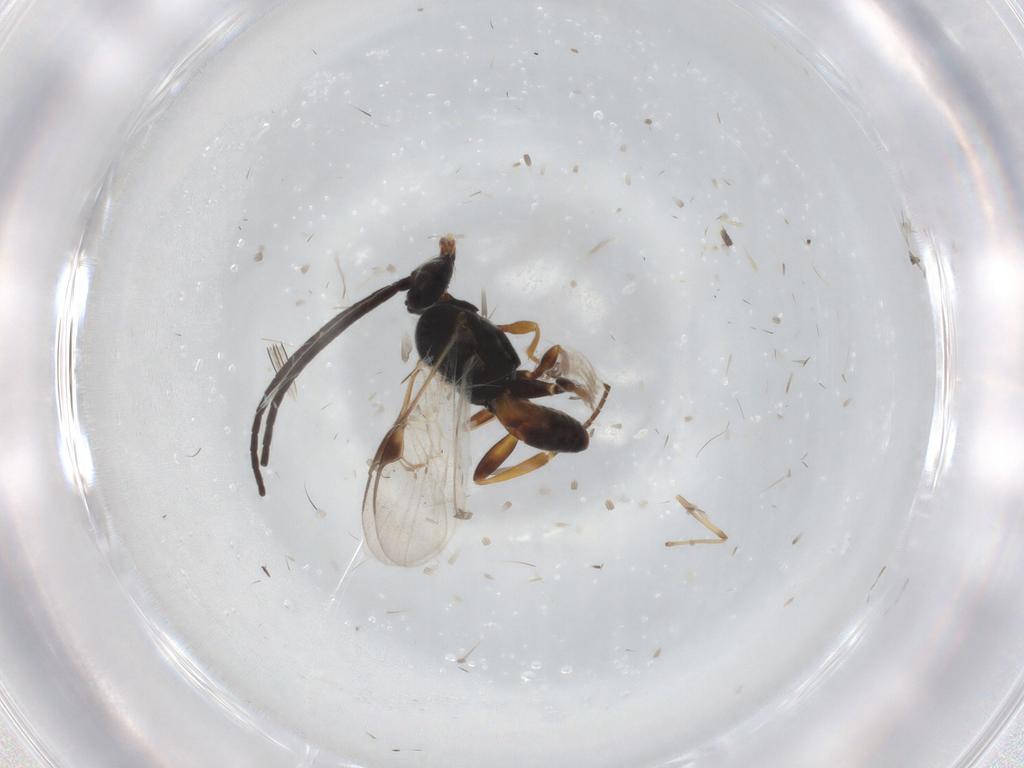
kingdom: Animalia
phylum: Arthropoda
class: Insecta
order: Hymenoptera
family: Braconidae
